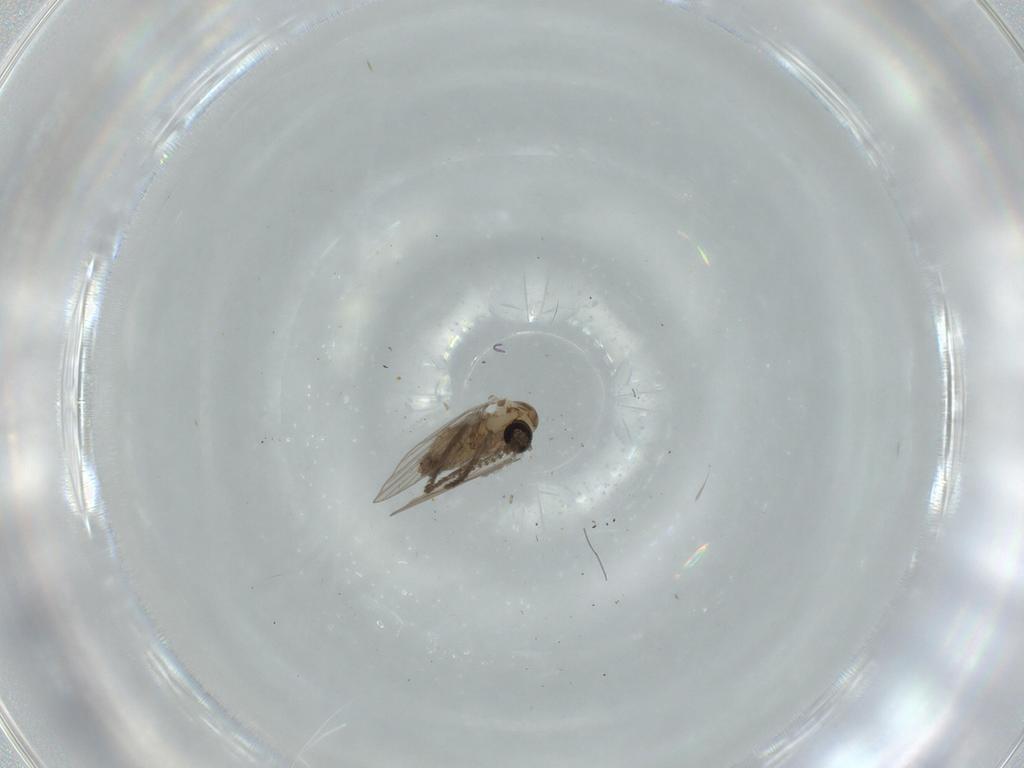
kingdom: Animalia
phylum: Arthropoda
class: Insecta
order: Diptera
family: Psychodidae
